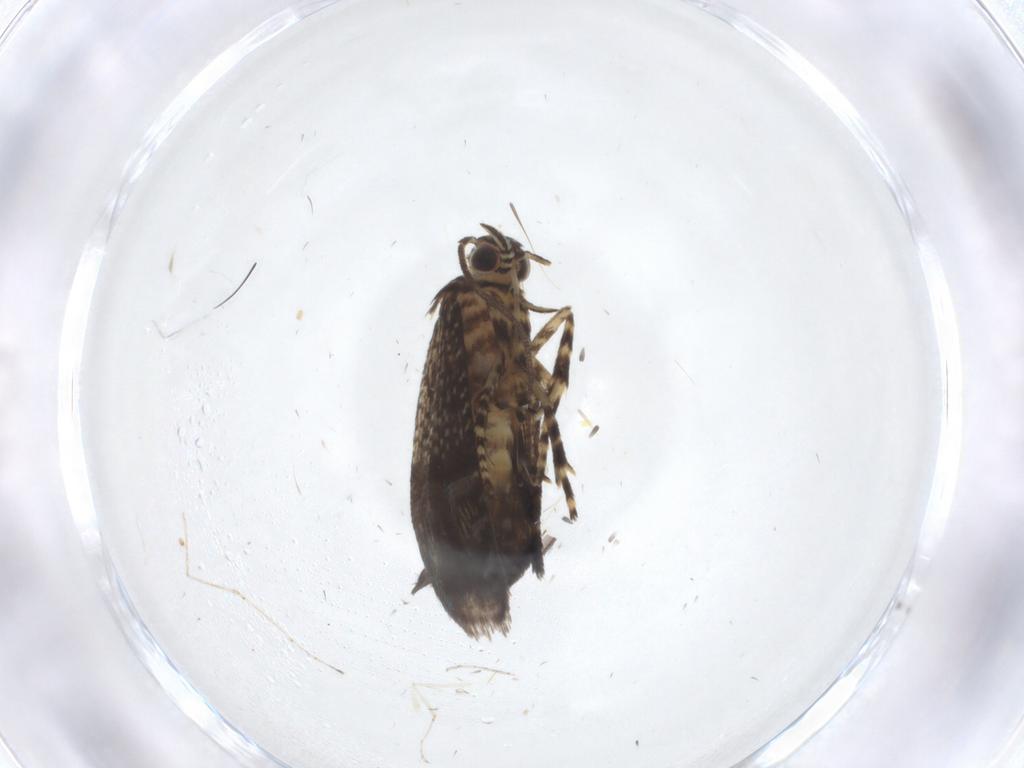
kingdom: Animalia
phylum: Arthropoda
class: Insecta
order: Lepidoptera
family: Geometridae
